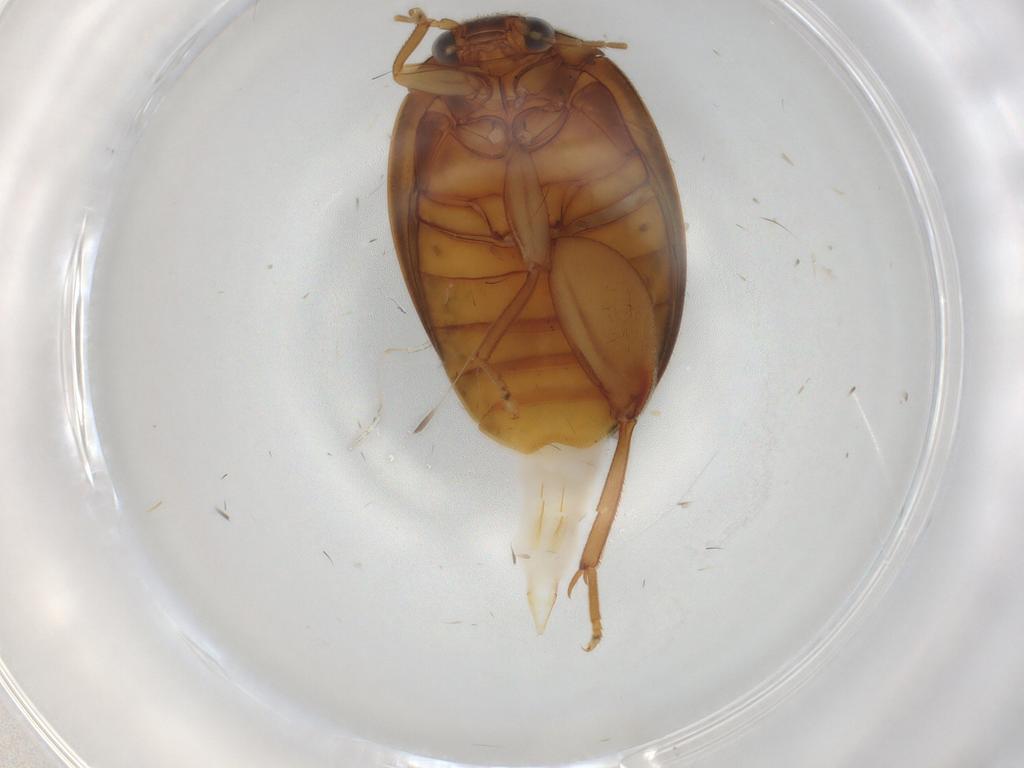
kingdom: Animalia
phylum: Arthropoda
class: Insecta
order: Coleoptera
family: Scirtidae
